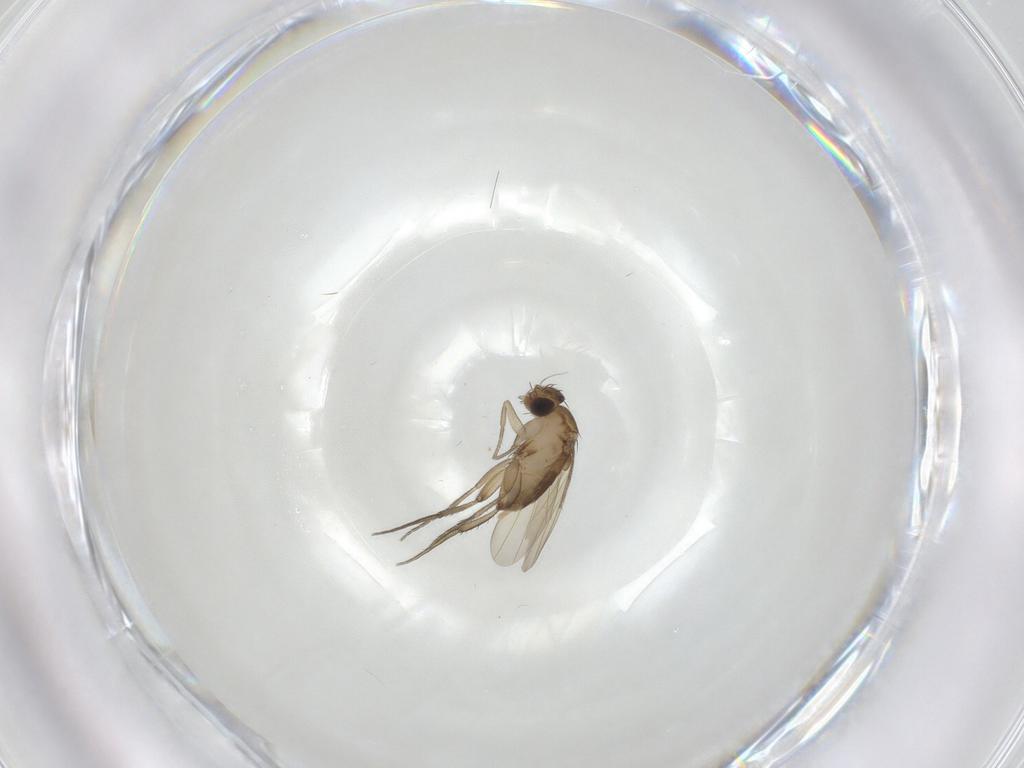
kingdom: Animalia
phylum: Arthropoda
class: Insecta
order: Diptera
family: Phoridae
